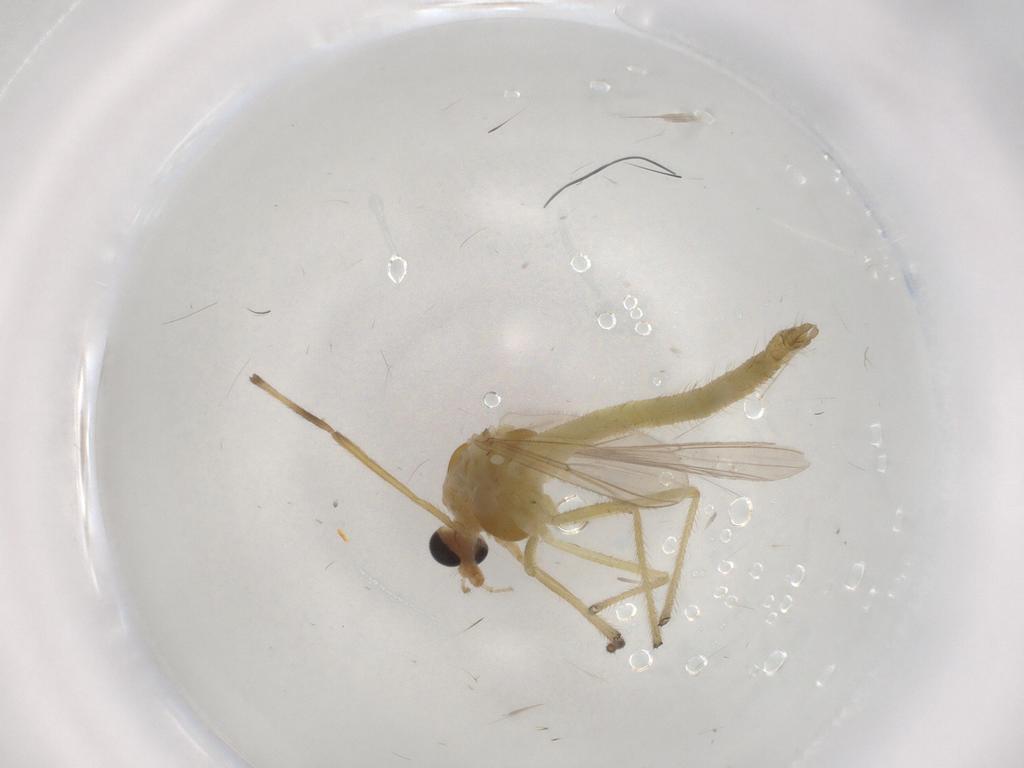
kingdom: Animalia
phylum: Arthropoda
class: Insecta
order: Diptera
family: Chironomidae
